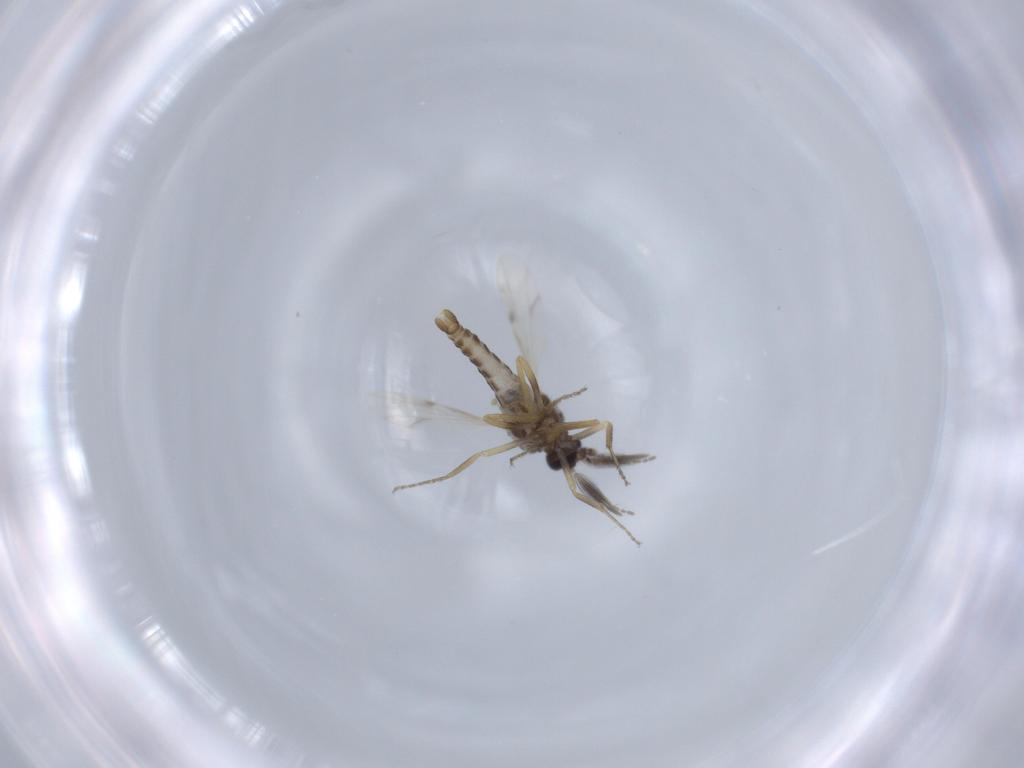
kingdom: Animalia
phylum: Arthropoda
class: Insecta
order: Diptera
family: Ceratopogonidae
